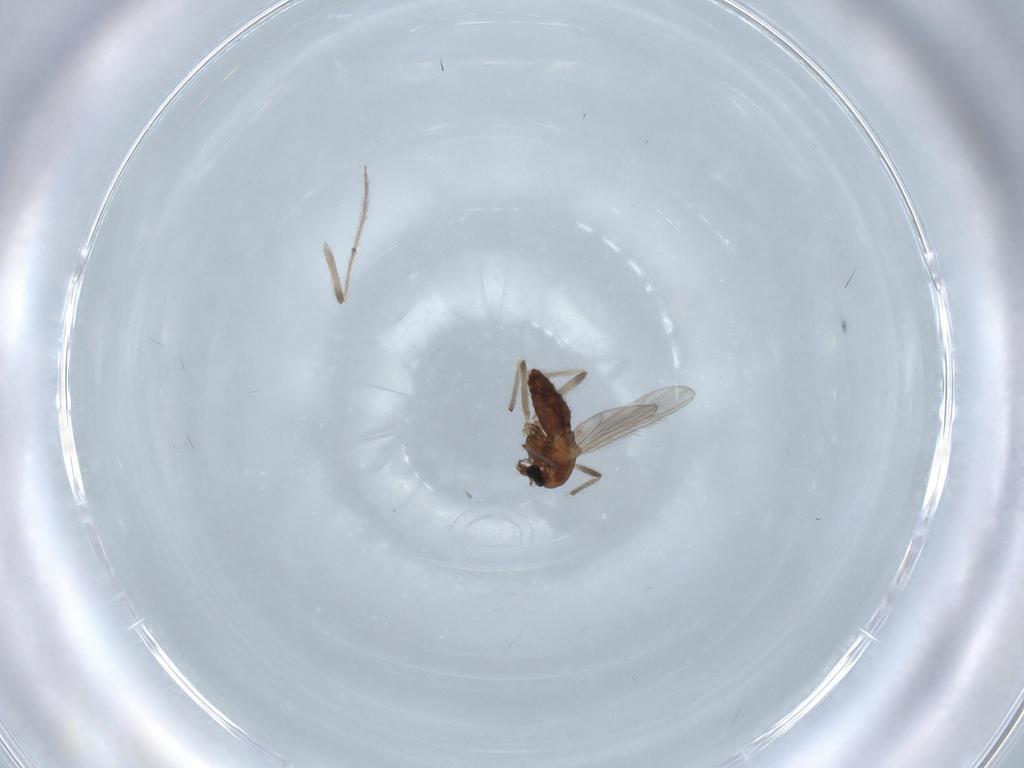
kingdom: Animalia
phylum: Arthropoda
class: Insecta
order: Diptera
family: Chironomidae
